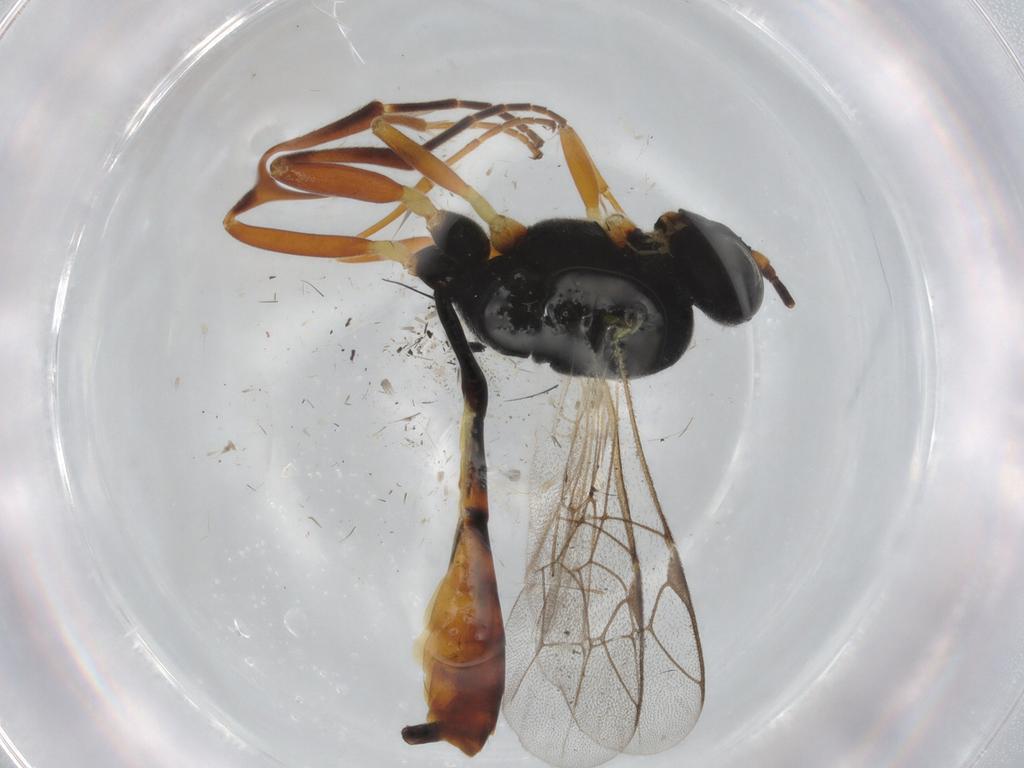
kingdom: Animalia
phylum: Arthropoda
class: Insecta
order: Hymenoptera
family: Ichneumonidae
